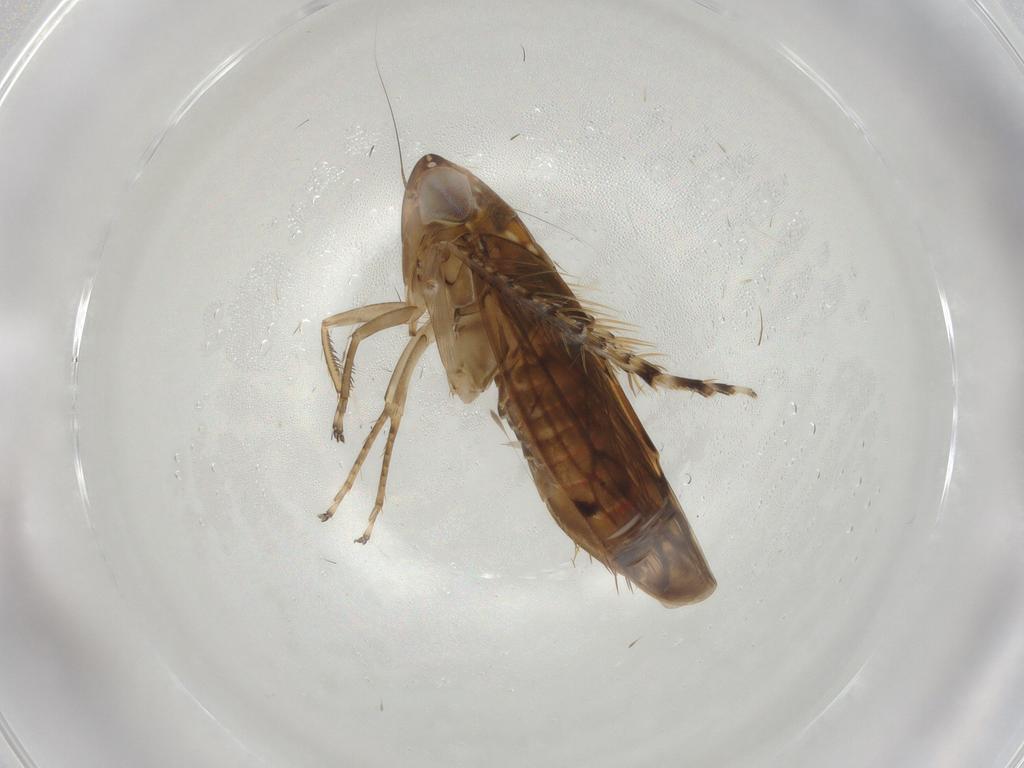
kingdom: Animalia
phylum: Arthropoda
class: Insecta
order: Hemiptera
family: Cicadellidae
